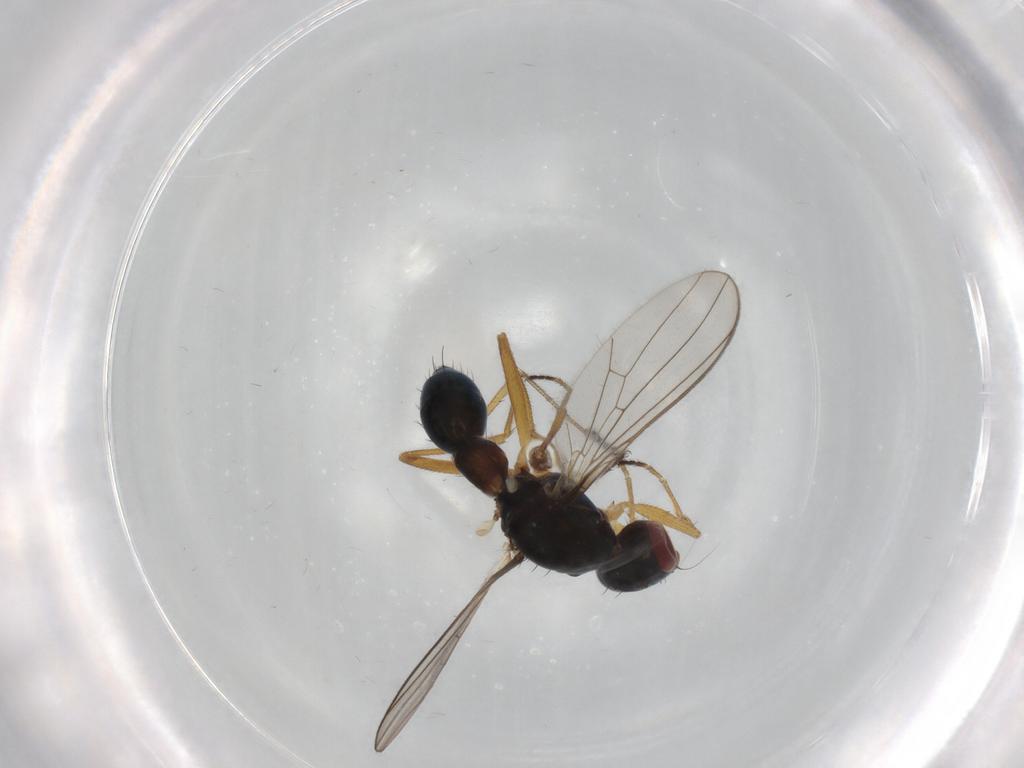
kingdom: Animalia
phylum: Arthropoda
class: Insecta
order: Diptera
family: Sepsidae
